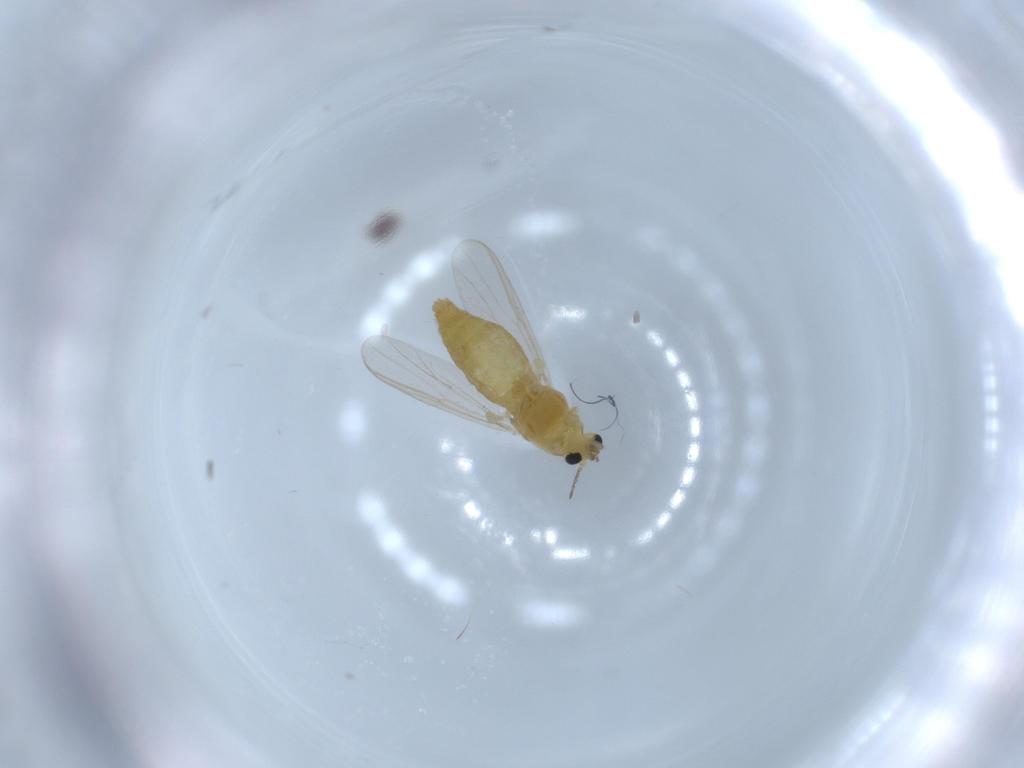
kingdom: Animalia
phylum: Arthropoda
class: Insecta
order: Diptera
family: Chironomidae
